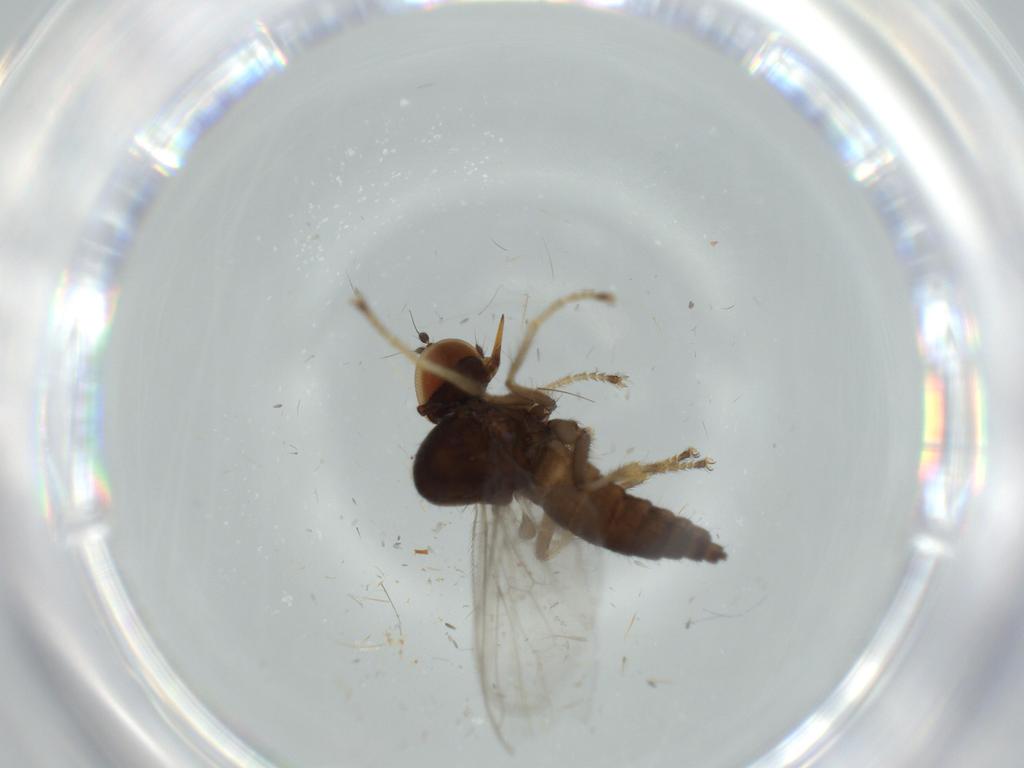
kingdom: Animalia
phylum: Arthropoda
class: Insecta
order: Diptera
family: Hybotidae
